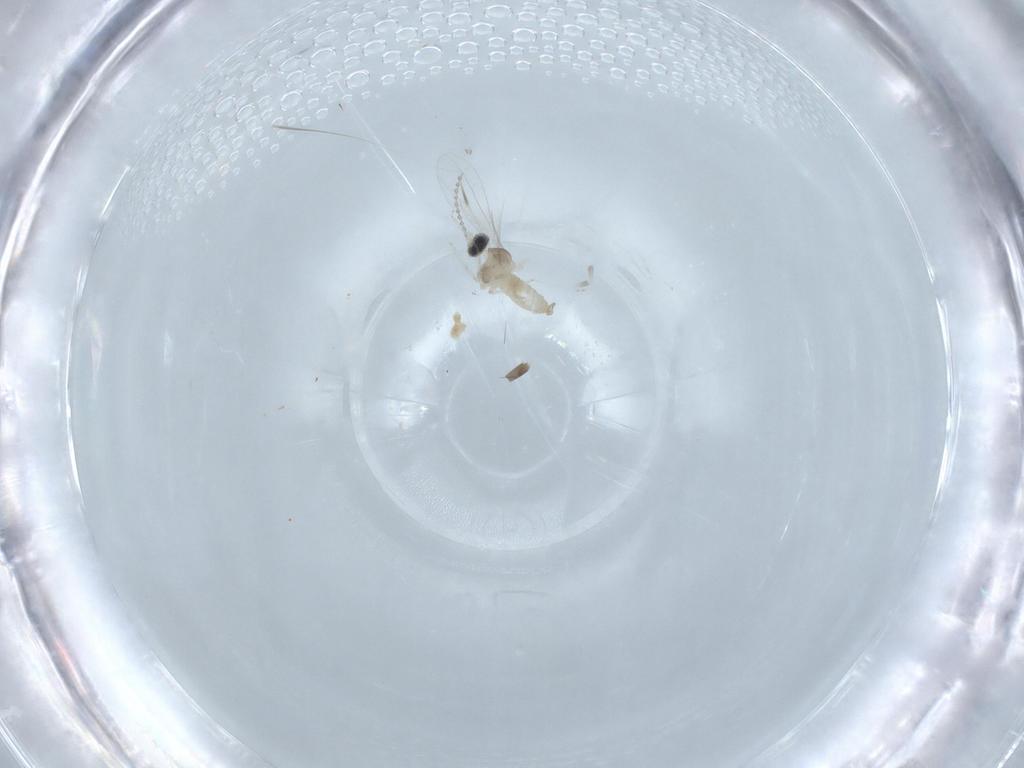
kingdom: Animalia
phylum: Arthropoda
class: Insecta
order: Diptera
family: Cecidomyiidae
